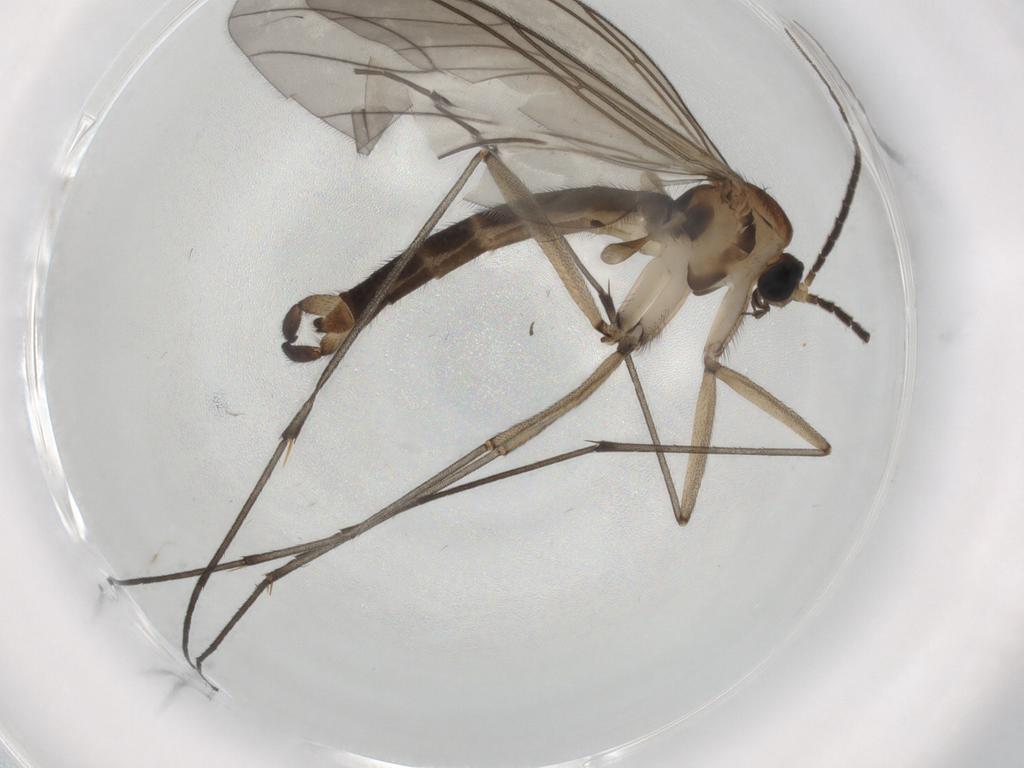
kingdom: Animalia
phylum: Arthropoda
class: Insecta
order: Diptera
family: Sciaridae
